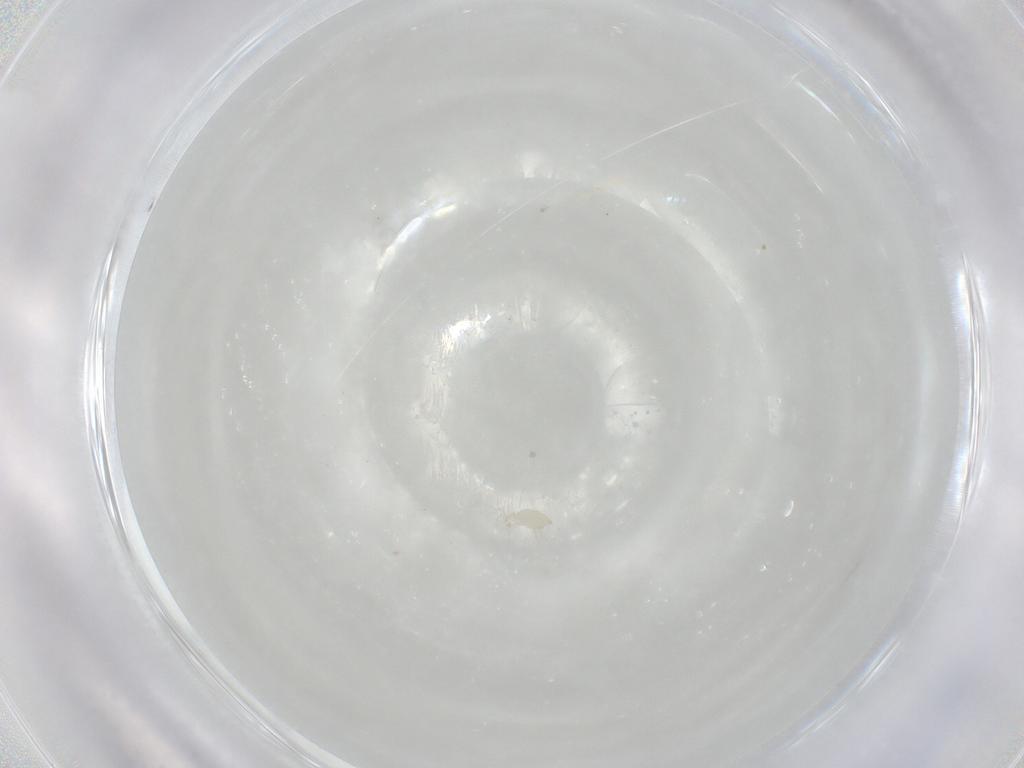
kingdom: Animalia
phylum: Arthropoda
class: Arachnida
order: Trombidiformes
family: Microtrombidiidae
